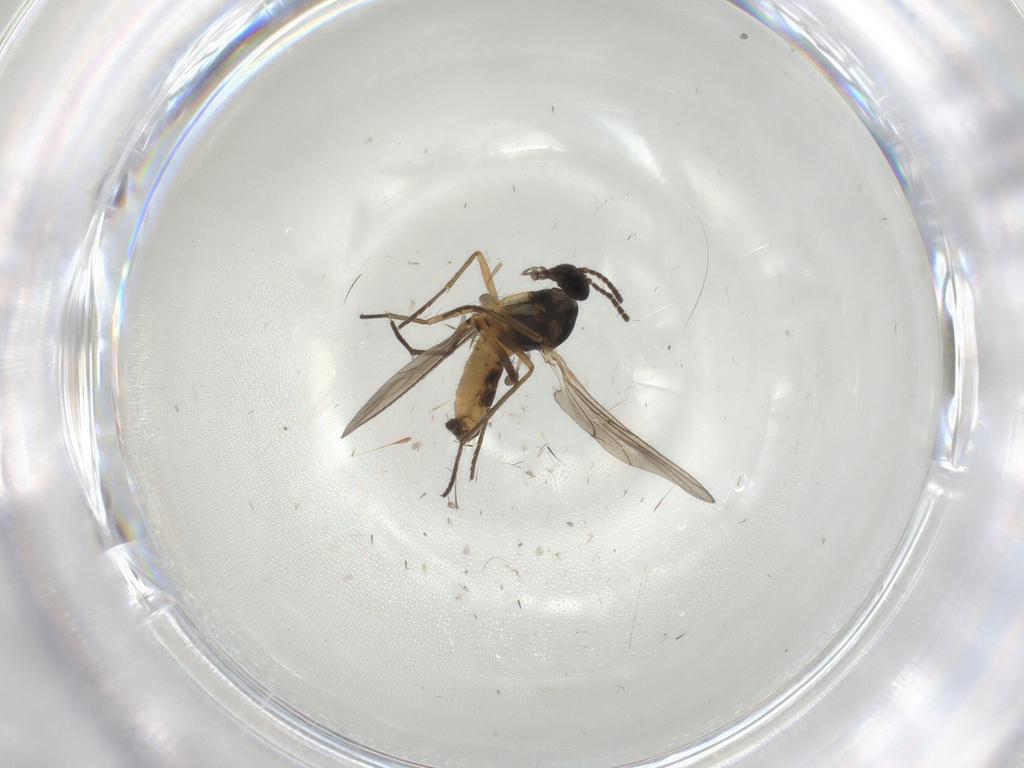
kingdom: Animalia
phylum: Arthropoda
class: Insecta
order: Diptera
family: Sciaridae
